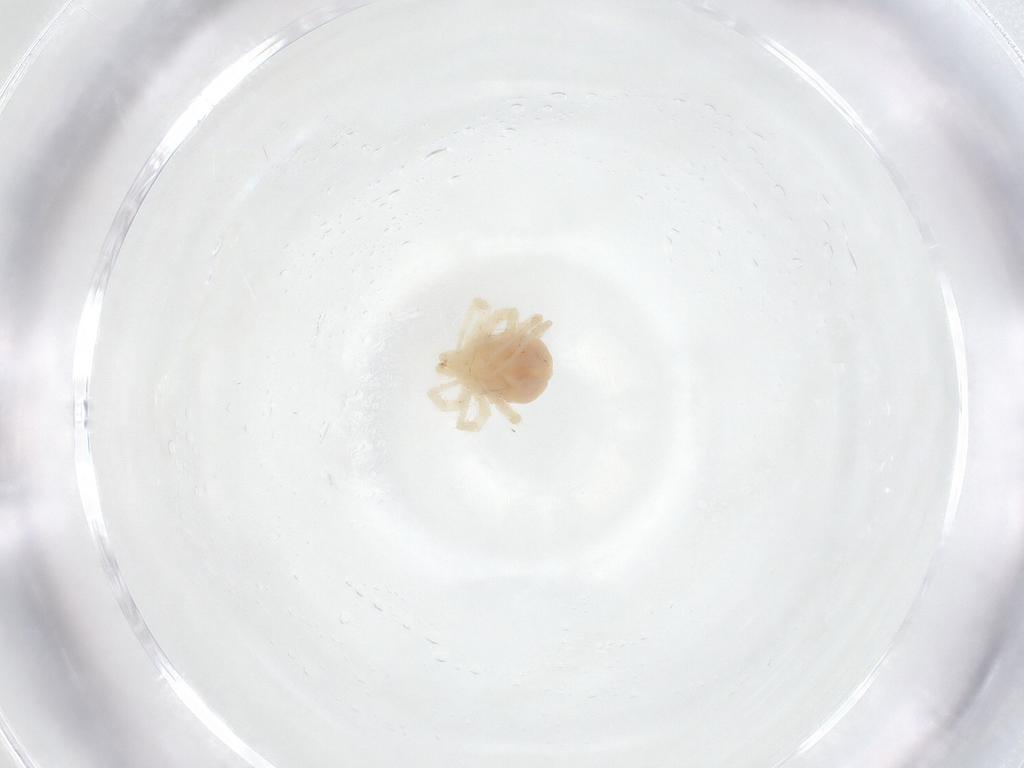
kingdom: Animalia
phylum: Arthropoda
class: Arachnida
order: Trombidiformes
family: Anystidae
